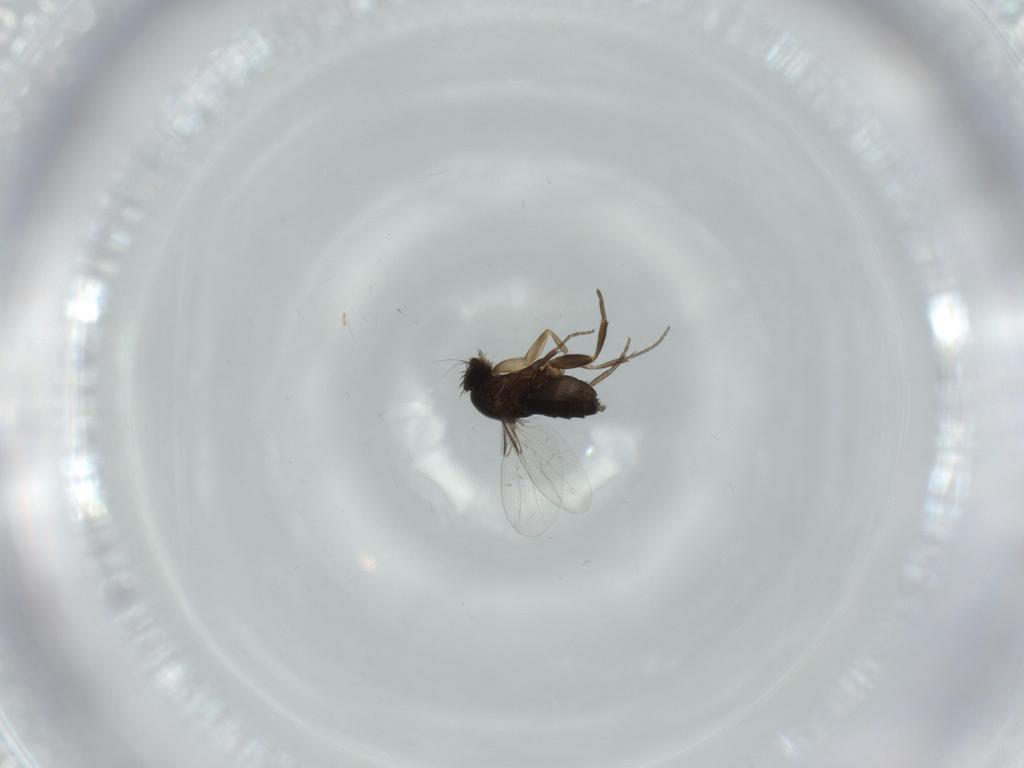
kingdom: Animalia
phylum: Arthropoda
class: Insecta
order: Diptera
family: Phoridae
